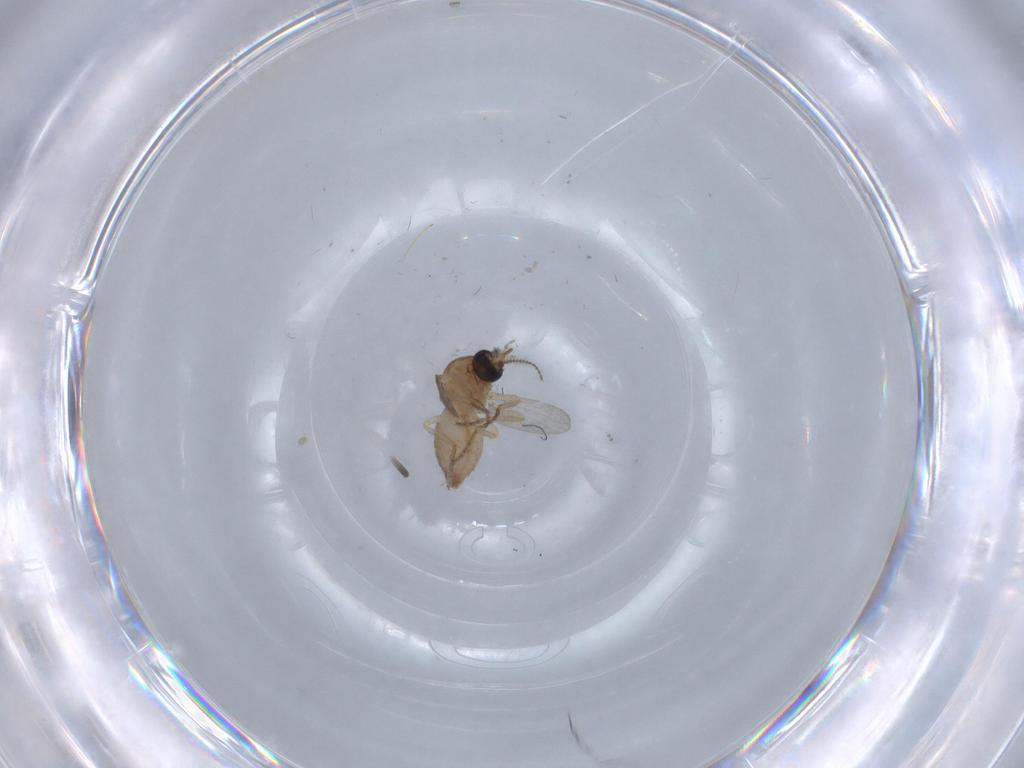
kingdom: Animalia
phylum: Arthropoda
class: Insecta
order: Diptera
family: Ceratopogonidae
